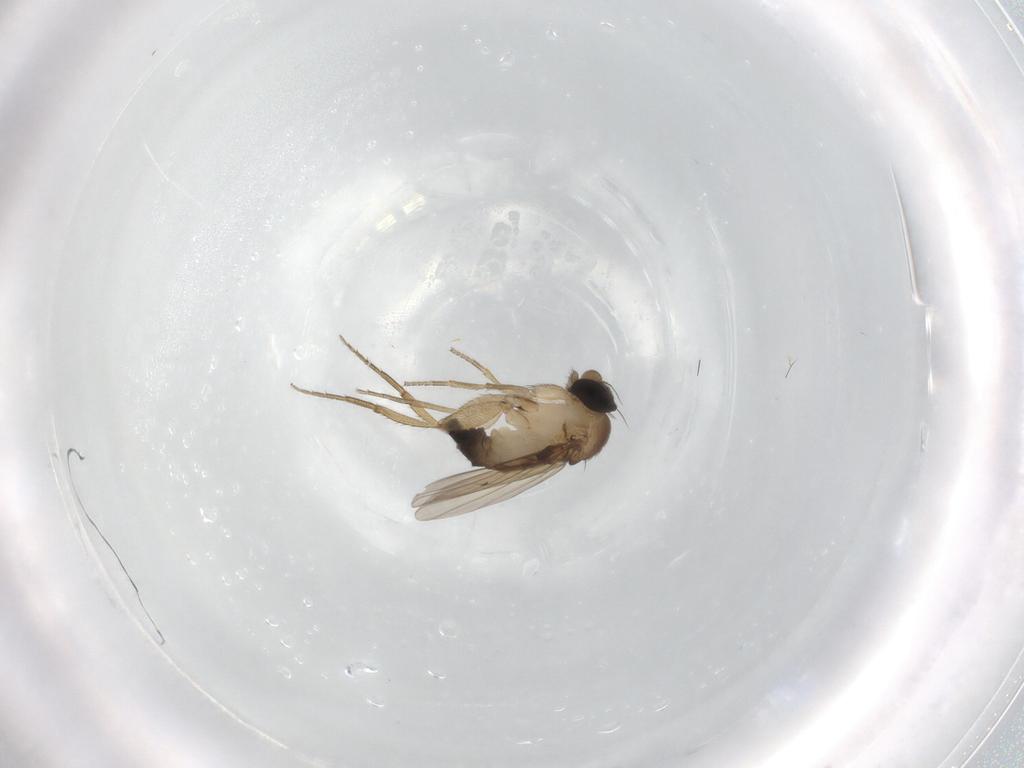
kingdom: Animalia
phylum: Arthropoda
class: Insecta
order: Diptera
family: Phoridae
